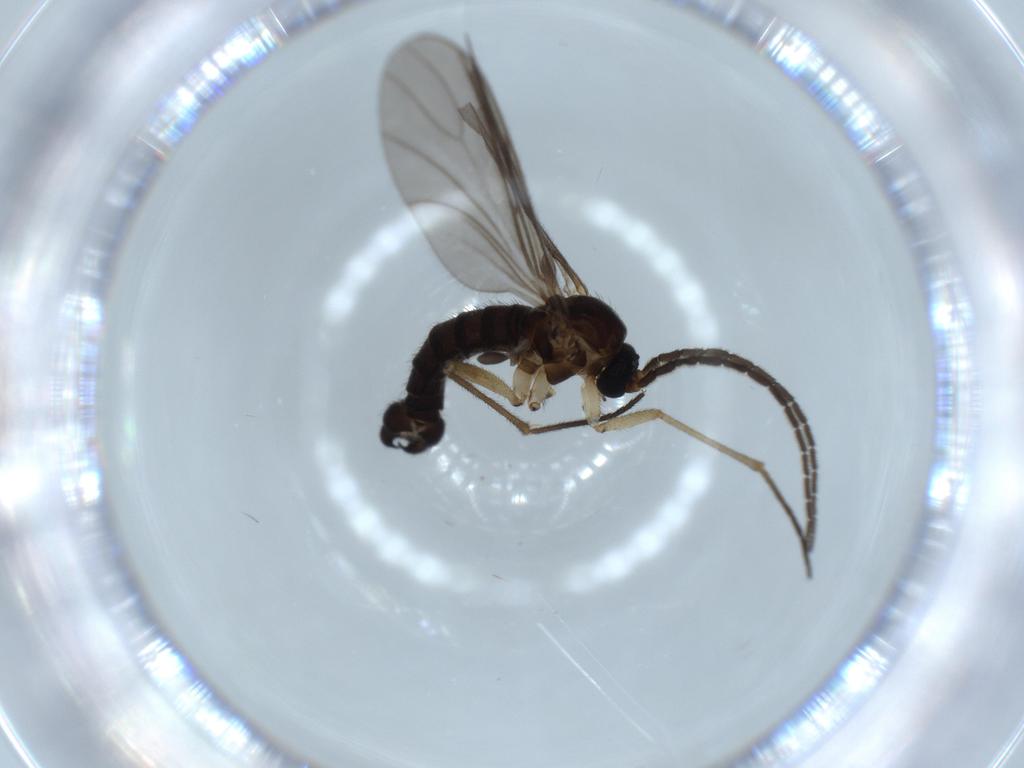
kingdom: Animalia
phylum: Arthropoda
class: Insecta
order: Diptera
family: Sciaridae
